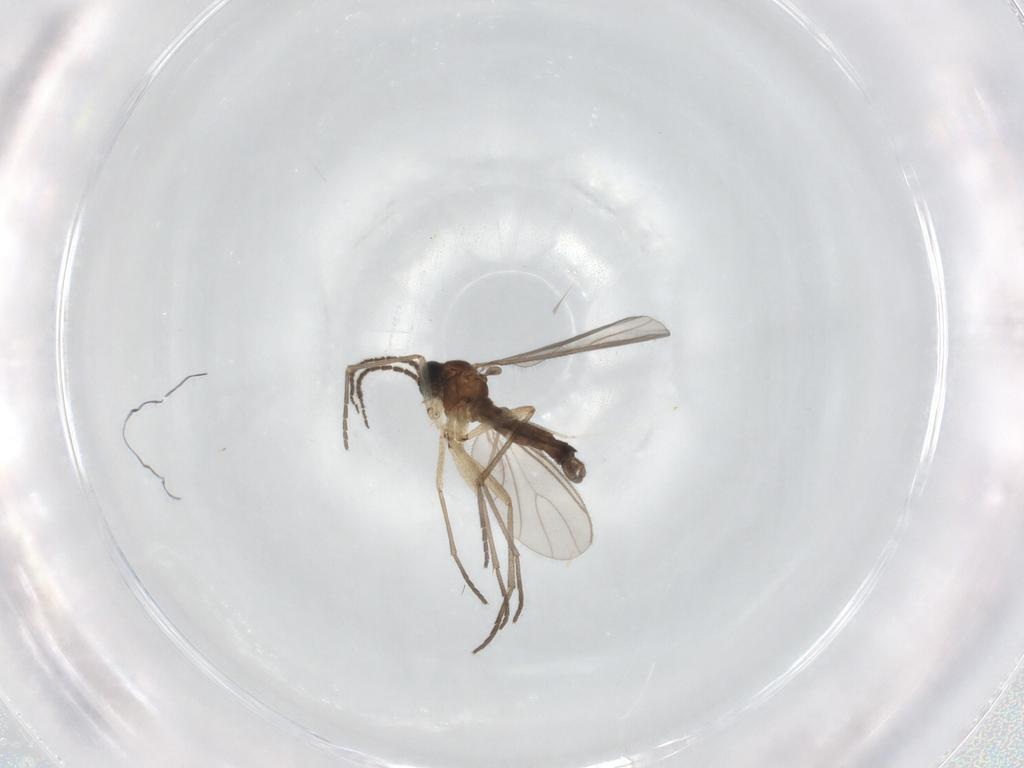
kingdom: Animalia
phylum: Arthropoda
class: Insecta
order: Diptera
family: Sciaridae
